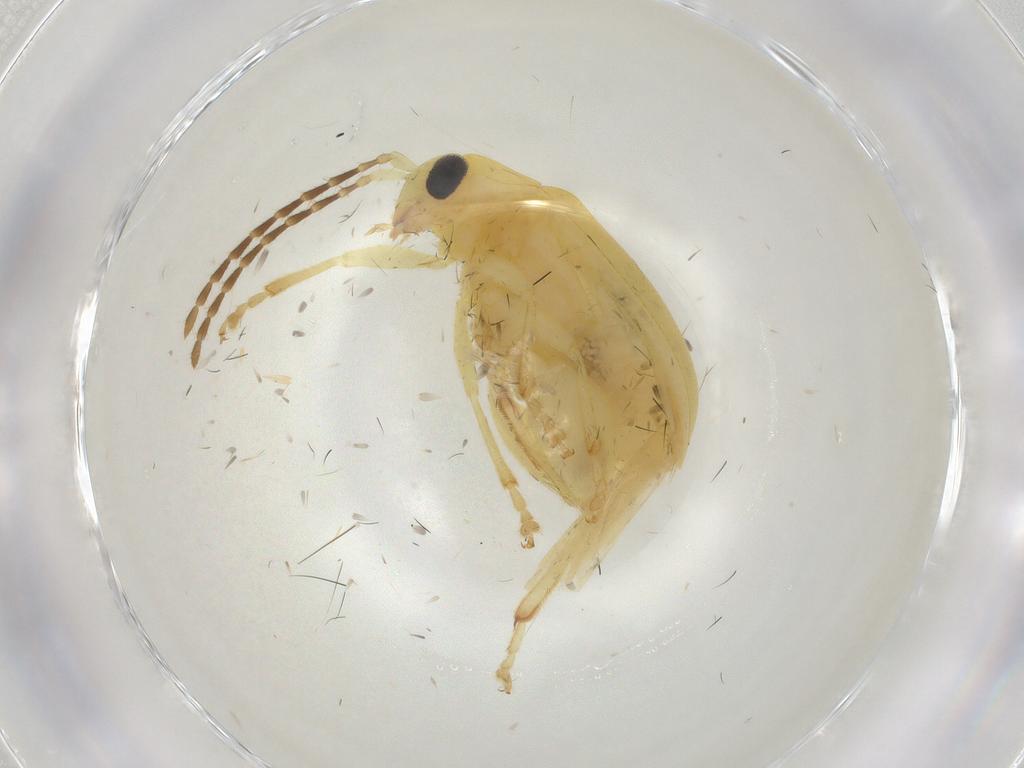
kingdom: Animalia
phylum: Arthropoda
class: Insecta
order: Coleoptera
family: Chrysomelidae
